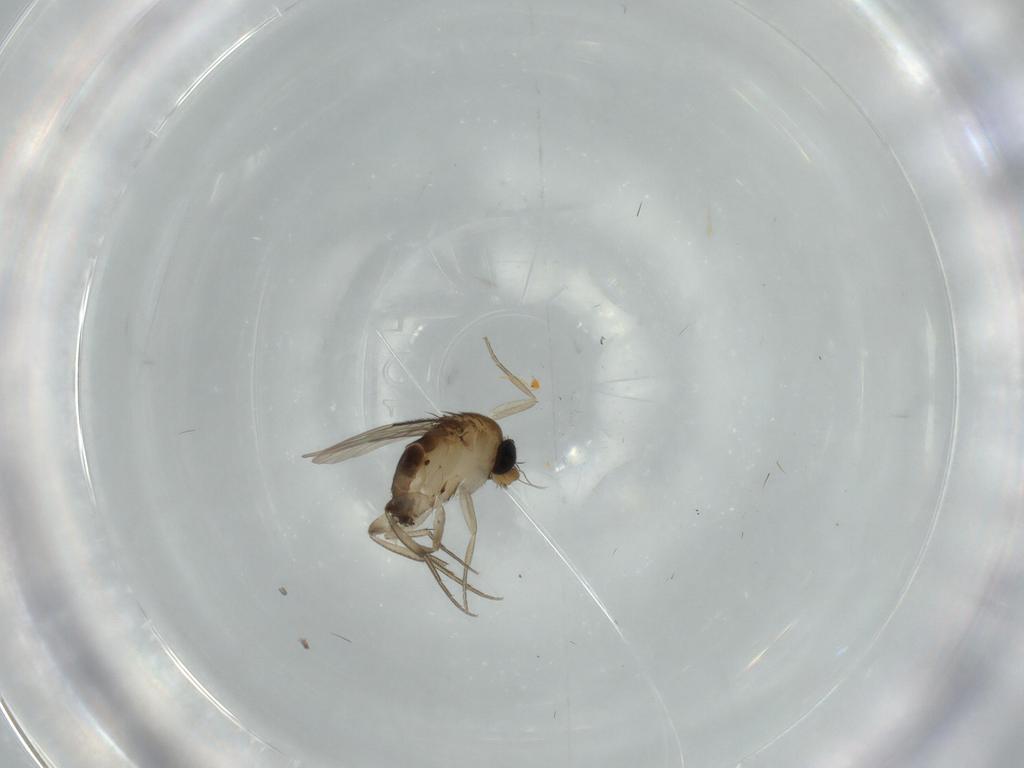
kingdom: Animalia
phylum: Arthropoda
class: Insecta
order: Diptera
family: Phoridae
